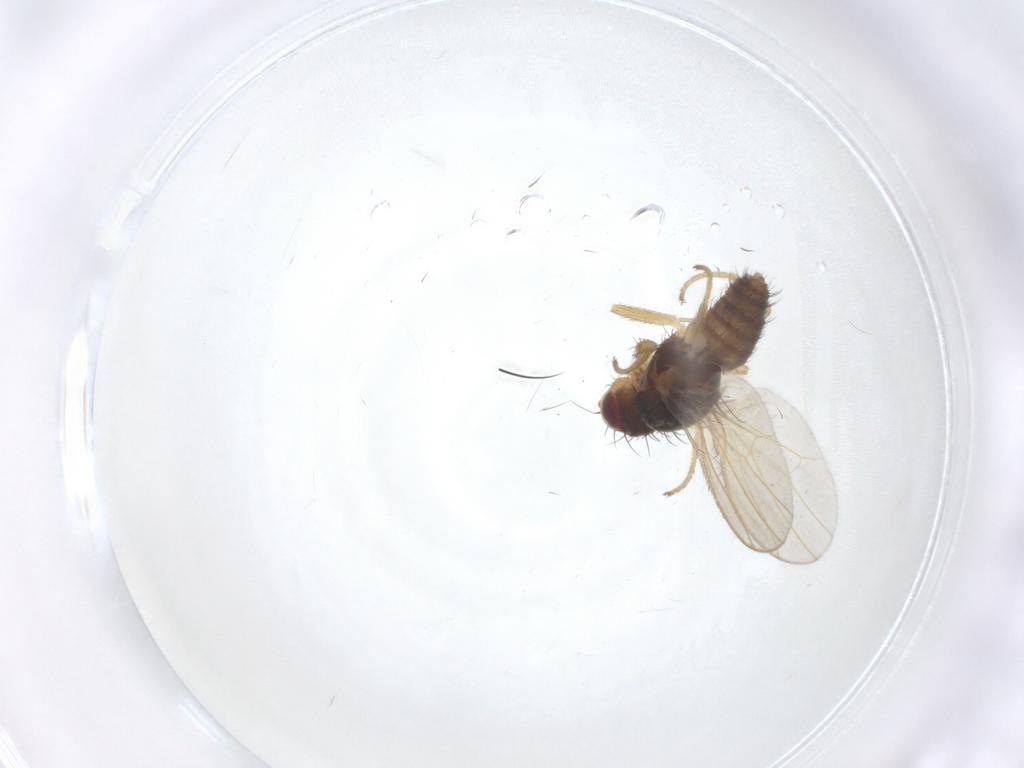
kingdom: Animalia
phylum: Arthropoda
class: Insecta
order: Diptera
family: Heleomyzidae
